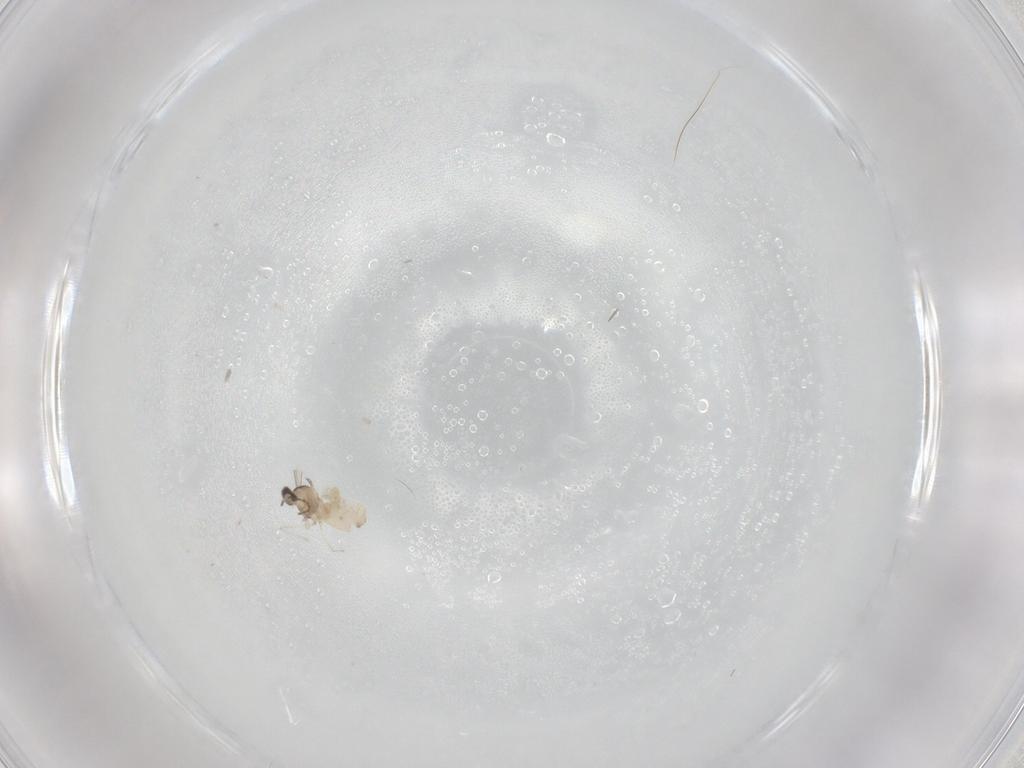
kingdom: Animalia
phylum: Arthropoda
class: Insecta
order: Diptera
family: Cecidomyiidae
